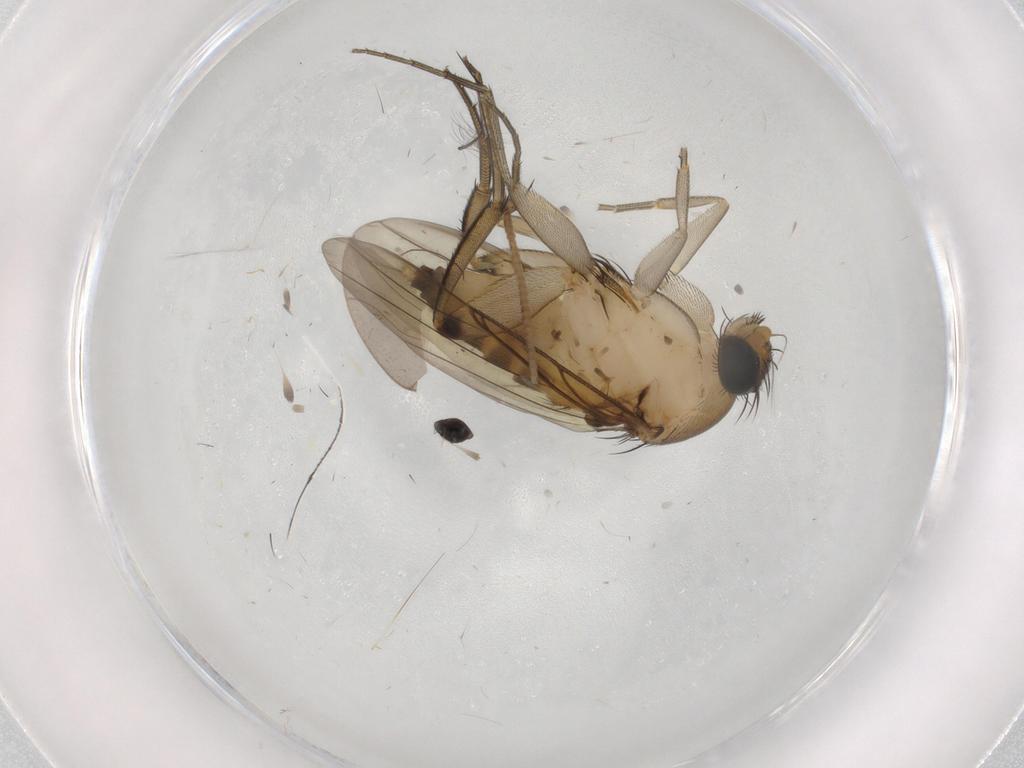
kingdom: Animalia
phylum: Arthropoda
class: Insecta
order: Diptera
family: Phoridae
